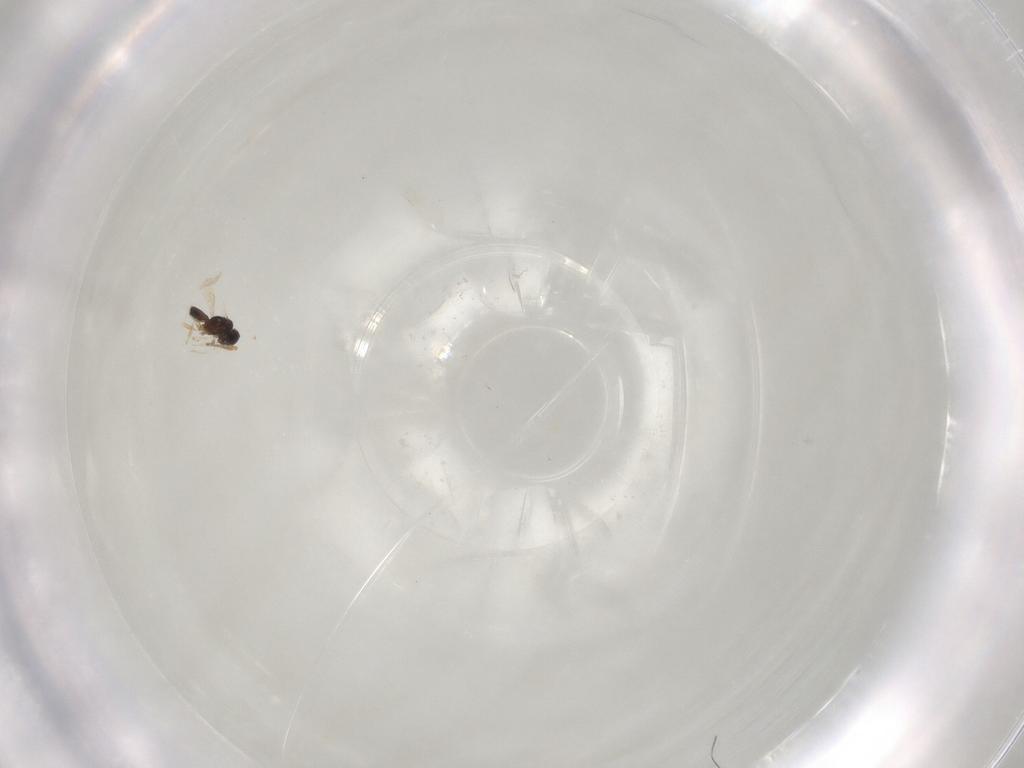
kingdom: Animalia
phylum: Arthropoda
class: Insecta
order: Hymenoptera
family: Scelionidae
